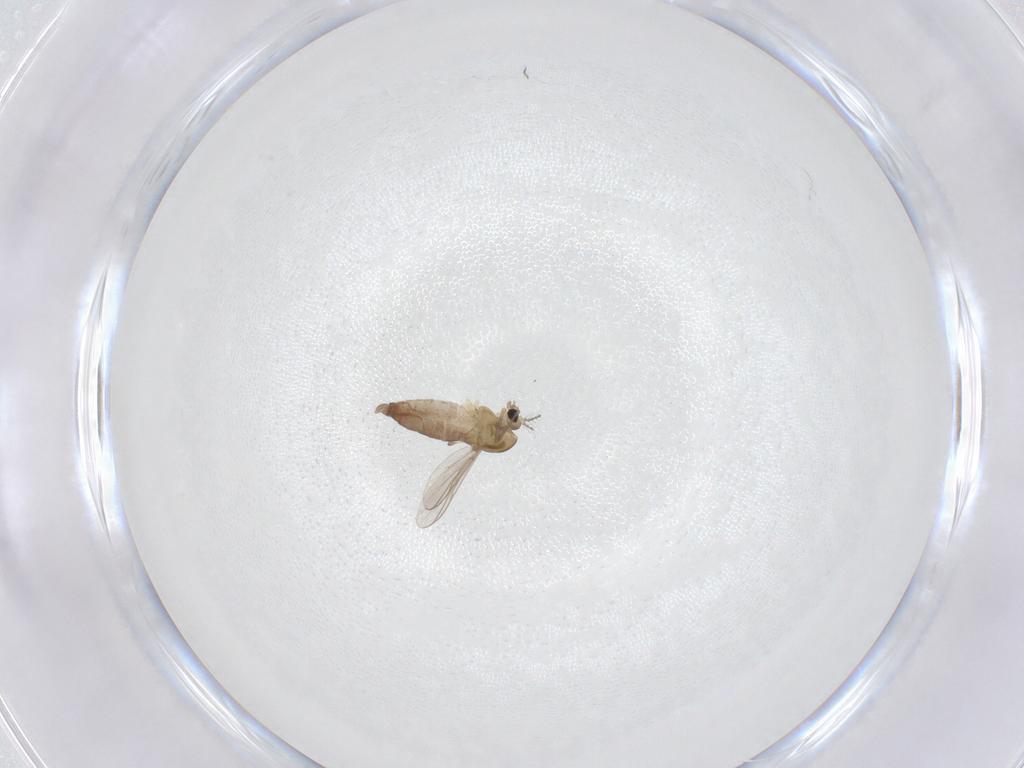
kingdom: Animalia
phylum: Arthropoda
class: Insecta
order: Diptera
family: Chironomidae
